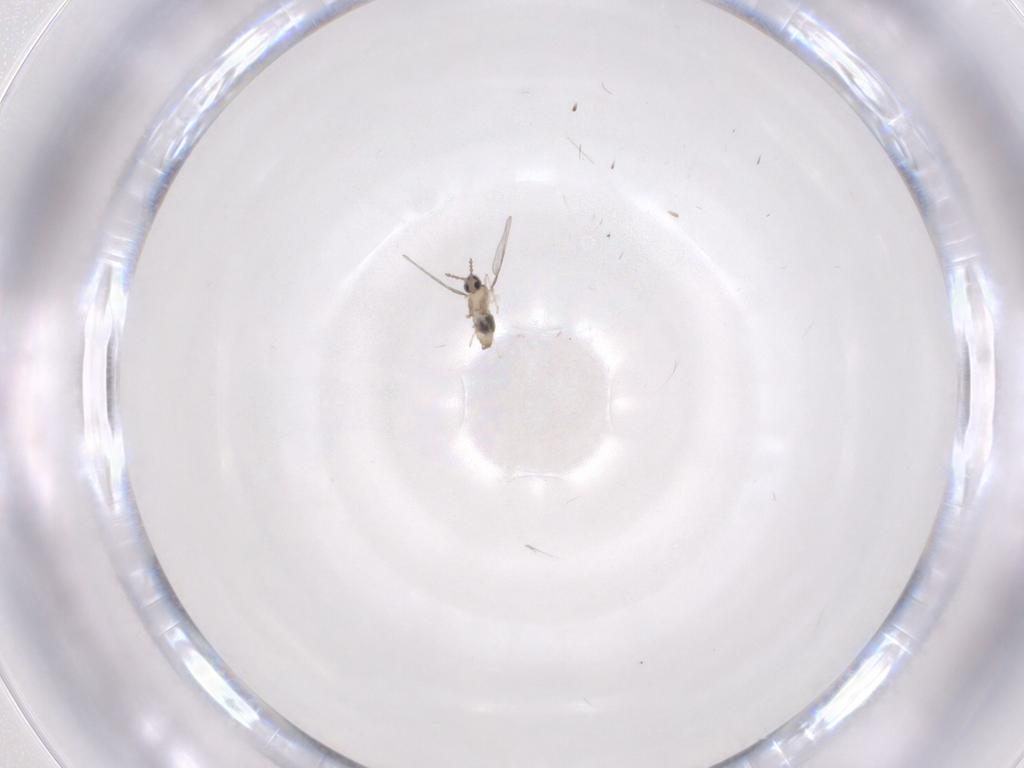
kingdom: Animalia
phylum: Arthropoda
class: Insecta
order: Diptera
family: Cecidomyiidae
